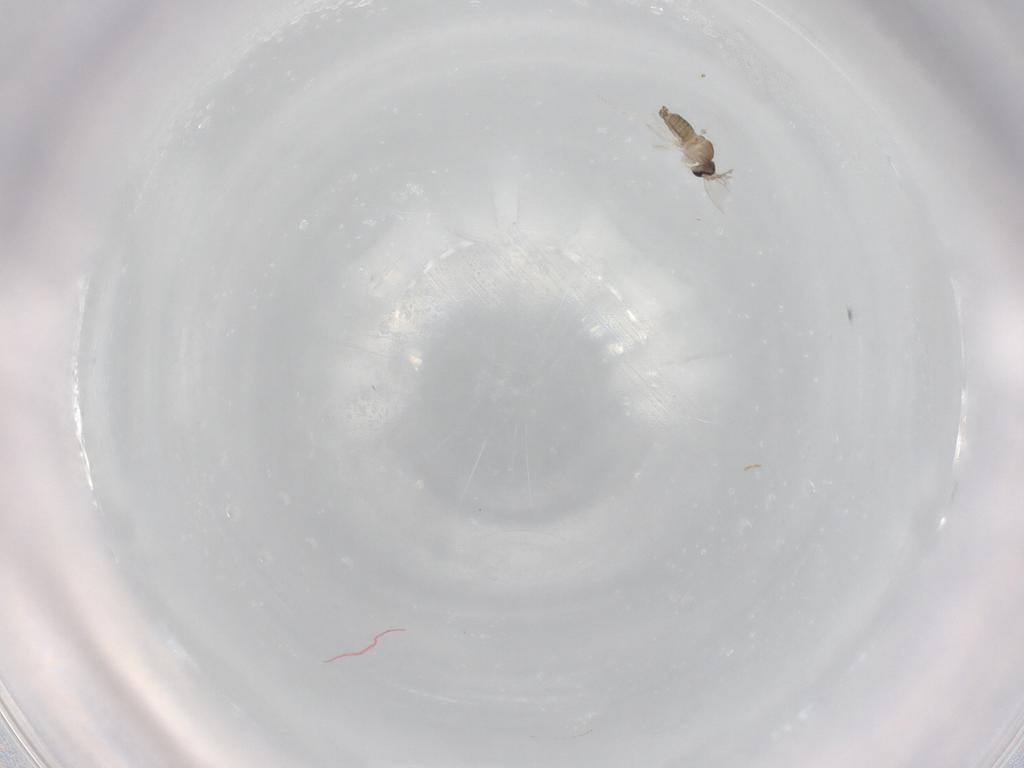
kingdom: Animalia
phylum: Arthropoda
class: Insecta
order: Diptera
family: Cecidomyiidae
